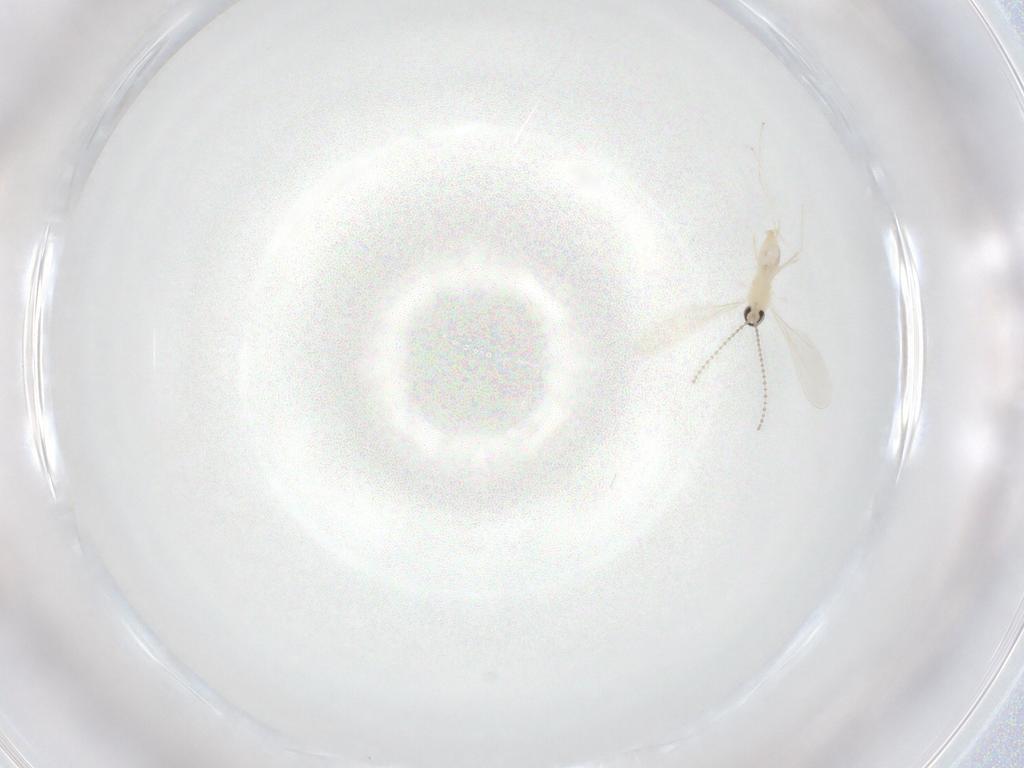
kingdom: Animalia
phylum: Arthropoda
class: Insecta
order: Diptera
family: Cecidomyiidae
